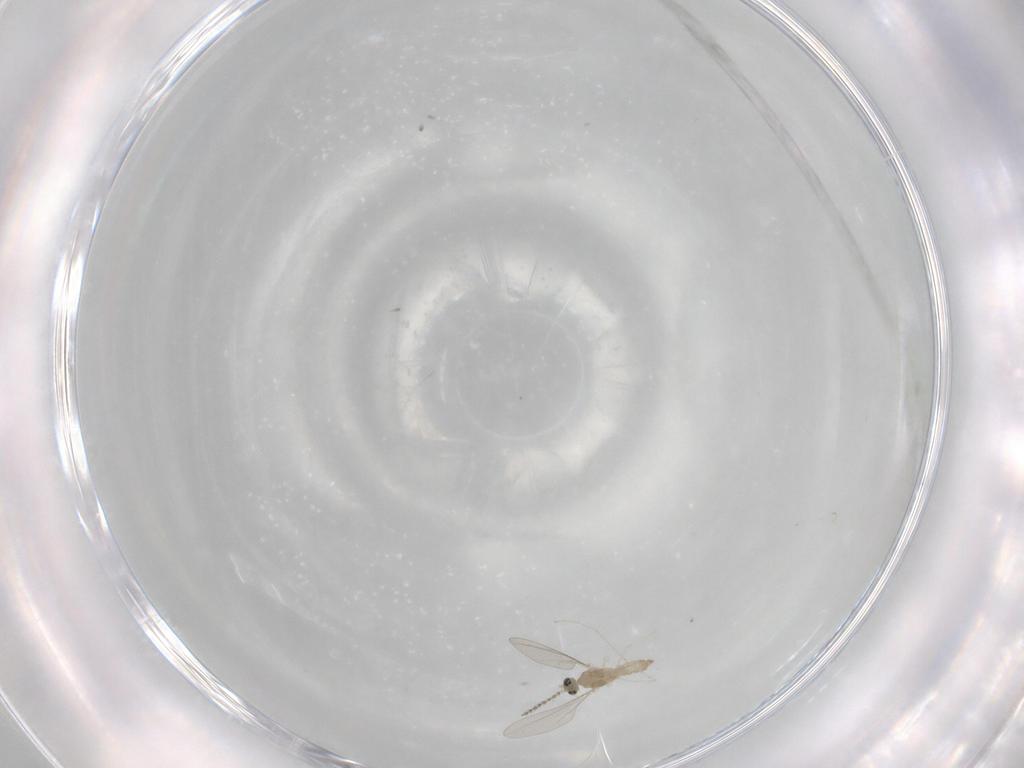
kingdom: Animalia
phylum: Arthropoda
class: Insecta
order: Diptera
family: Cecidomyiidae
